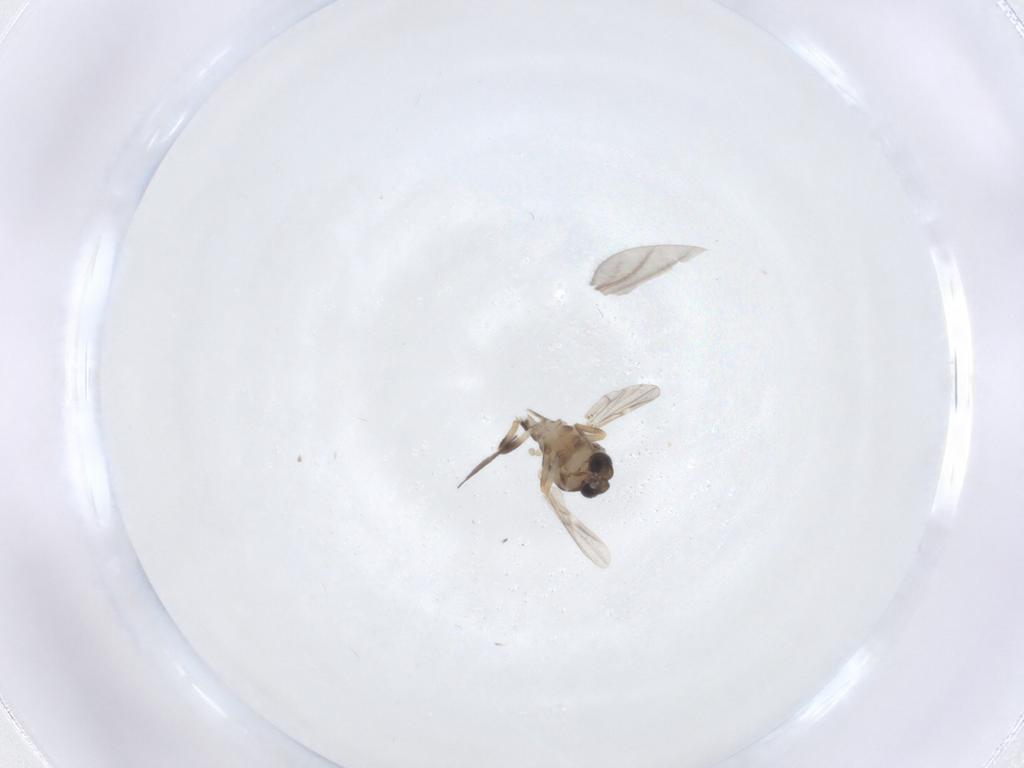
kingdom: Animalia
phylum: Arthropoda
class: Insecta
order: Diptera
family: Ceratopogonidae
